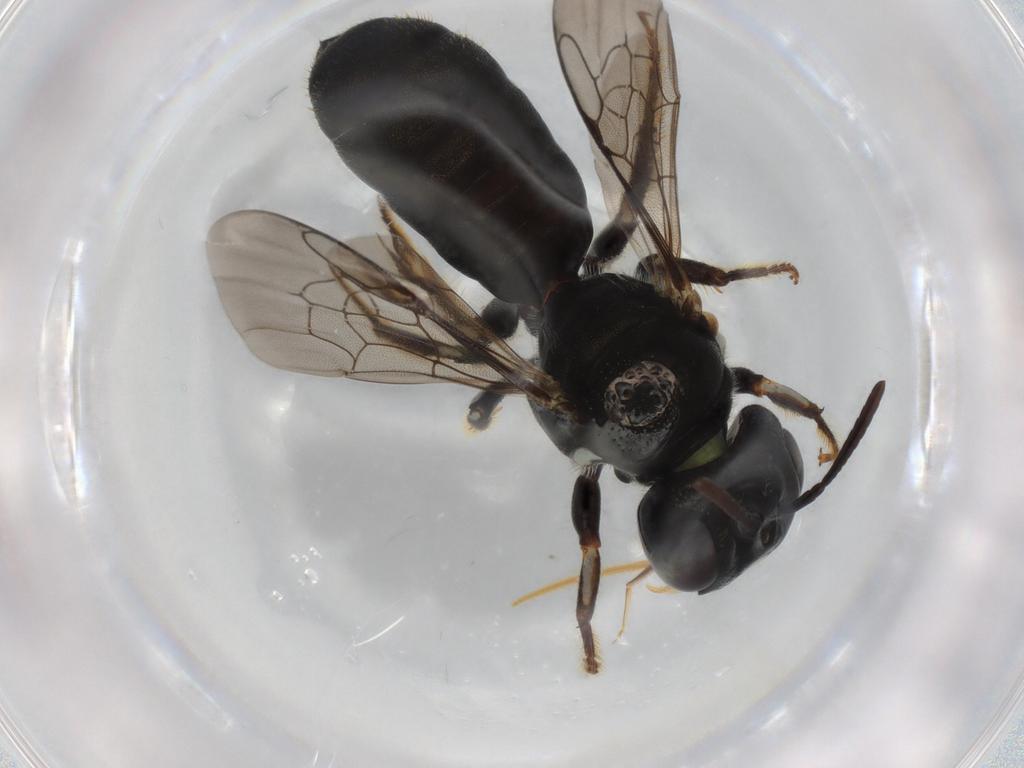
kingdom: Animalia
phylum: Arthropoda
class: Insecta
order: Hymenoptera
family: Apidae
